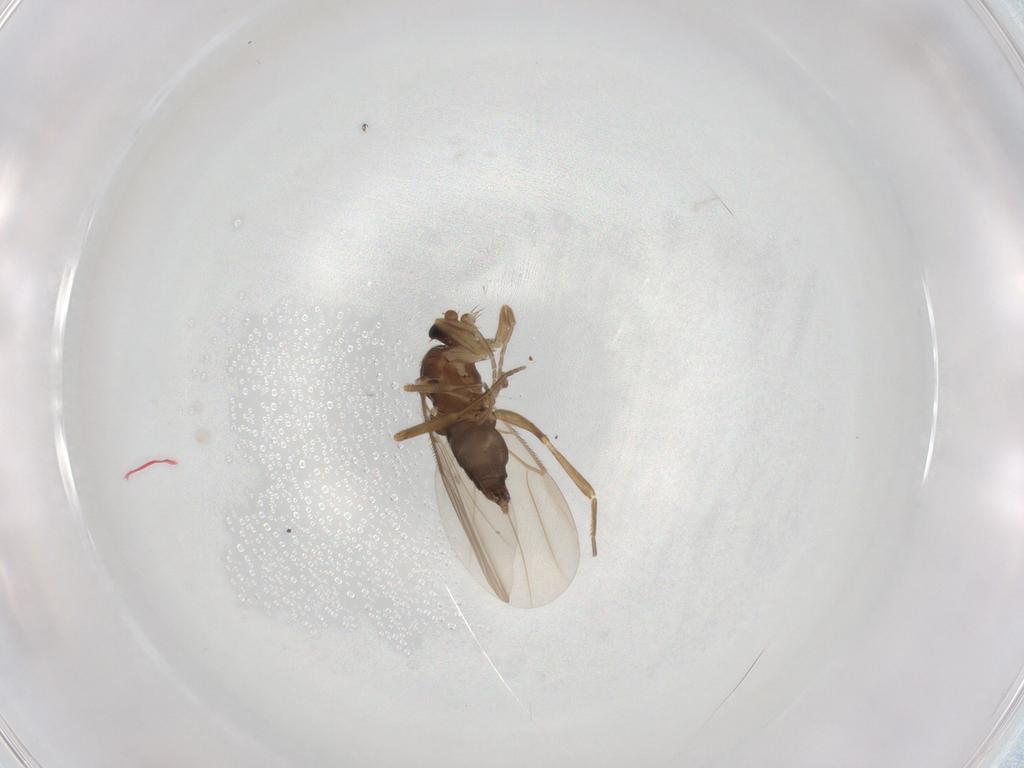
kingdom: Animalia
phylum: Arthropoda
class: Insecta
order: Diptera
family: Phoridae
